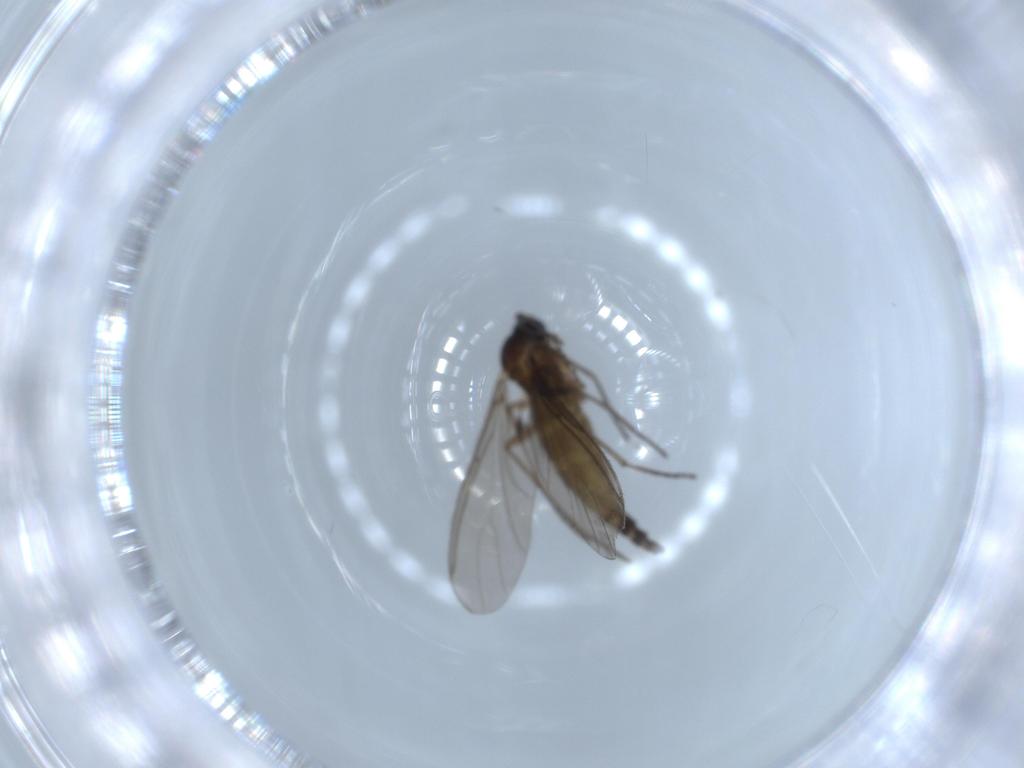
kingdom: Animalia
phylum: Arthropoda
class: Insecta
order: Diptera
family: Sciaridae
